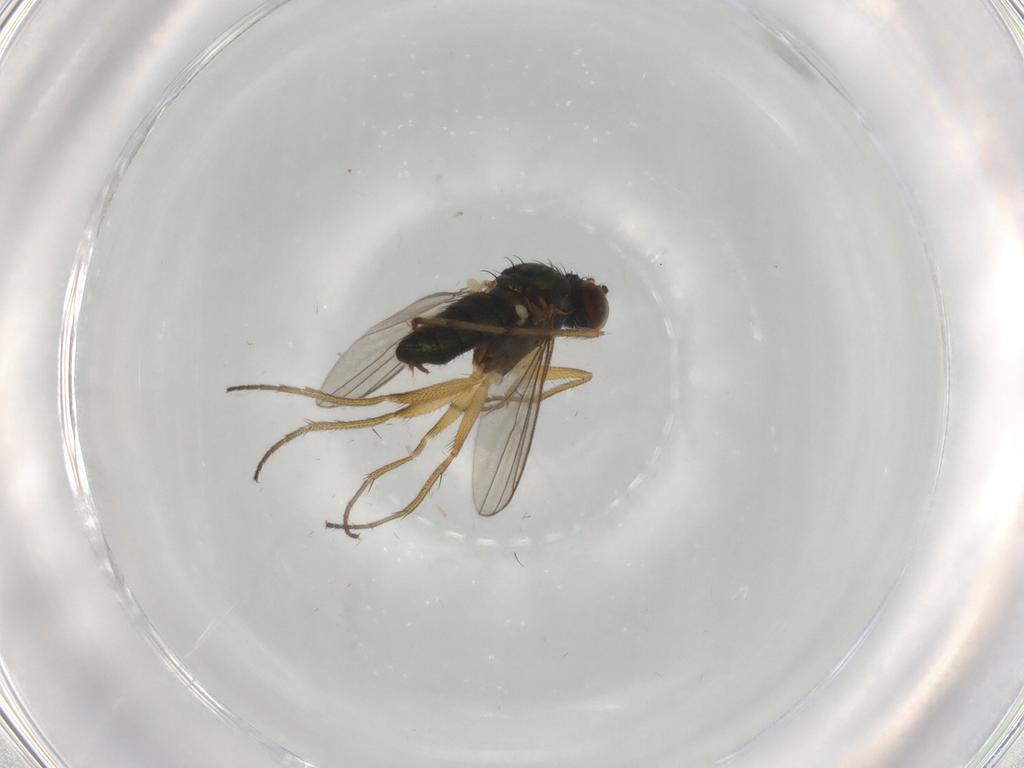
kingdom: Animalia
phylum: Arthropoda
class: Insecta
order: Diptera
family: Dolichopodidae
